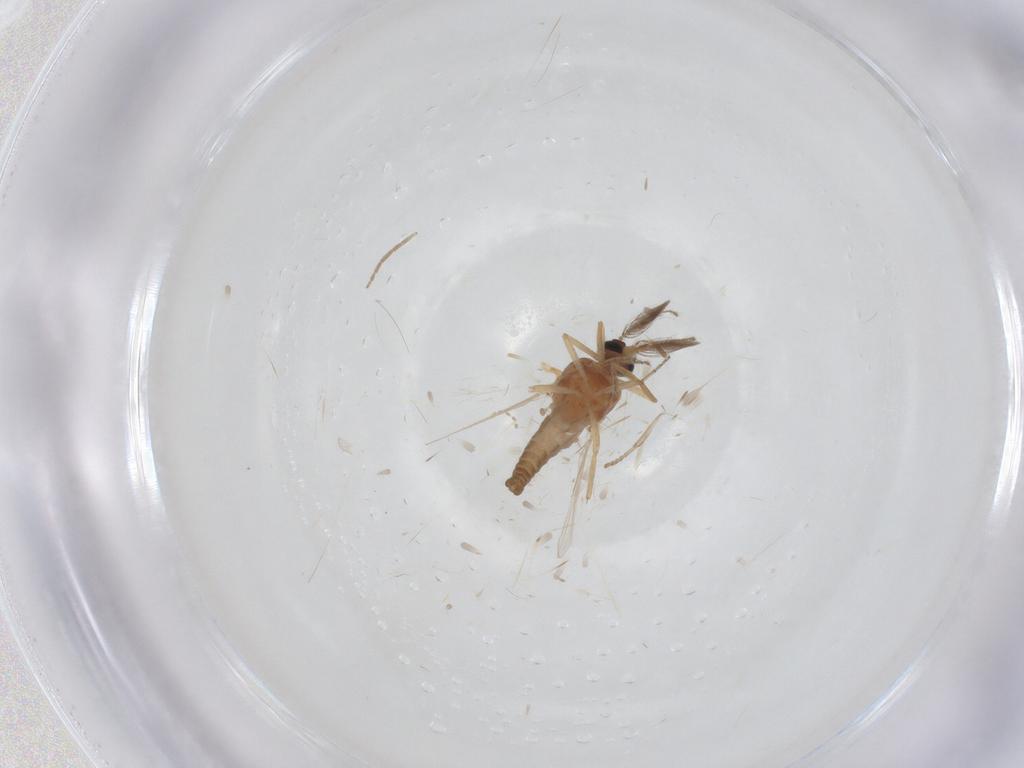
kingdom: Animalia
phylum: Arthropoda
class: Insecta
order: Diptera
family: Ceratopogonidae
